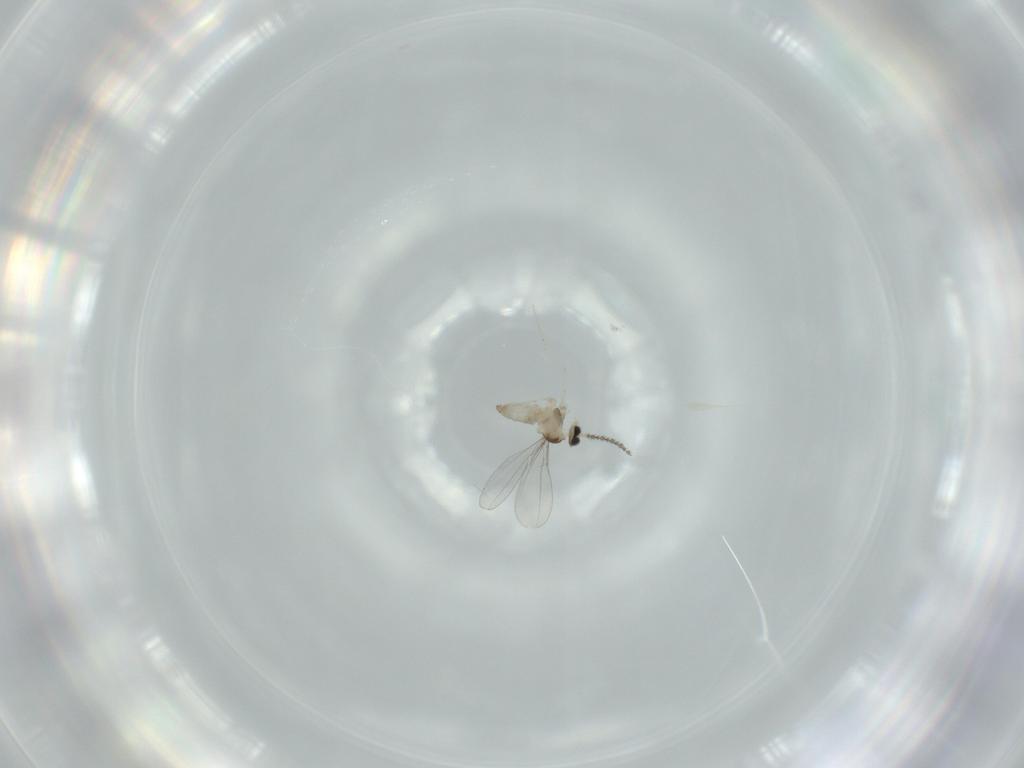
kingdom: Animalia
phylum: Arthropoda
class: Insecta
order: Diptera
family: Cecidomyiidae
